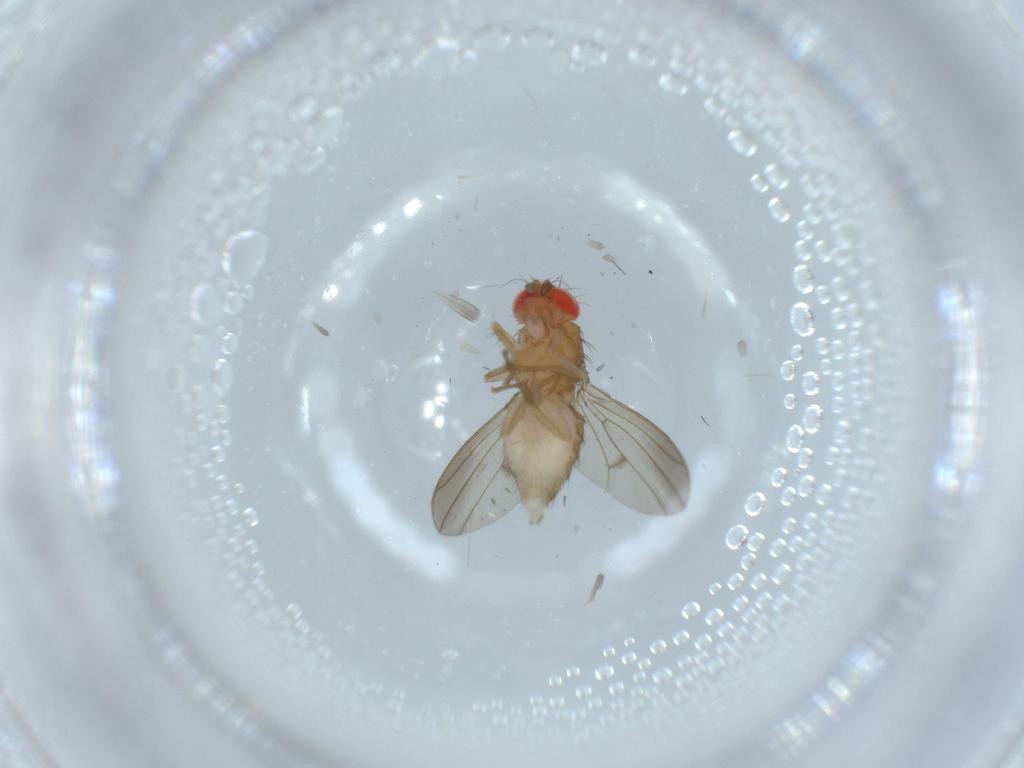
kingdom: Animalia
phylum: Arthropoda
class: Insecta
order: Diptera
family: Drosophilidae
